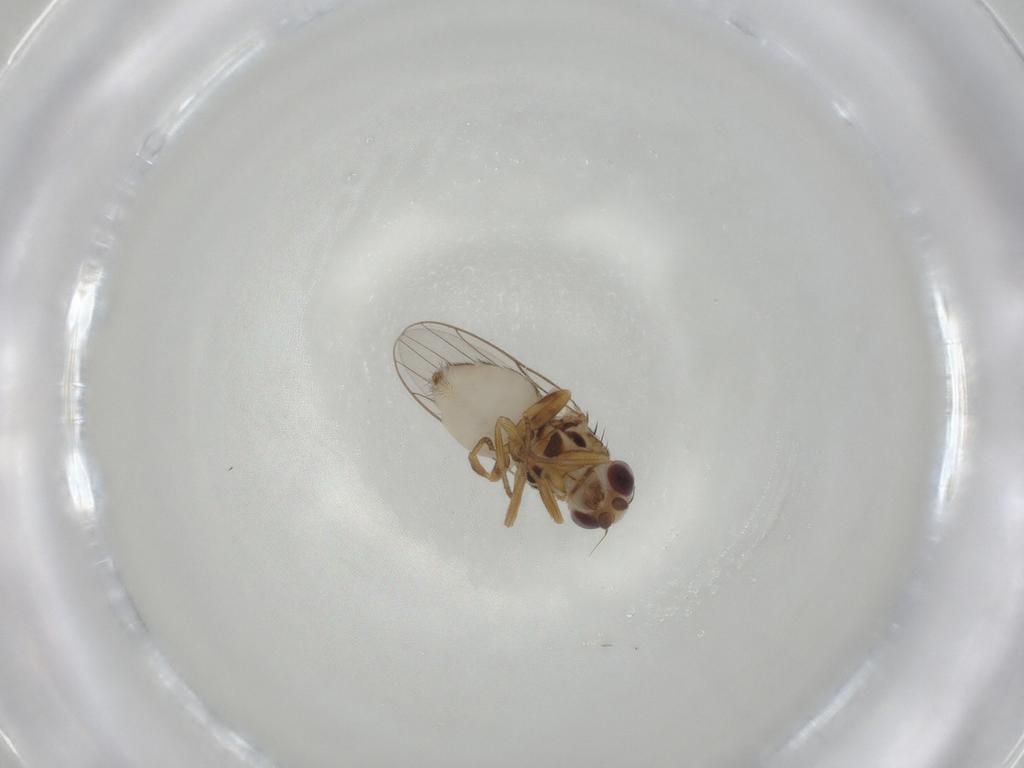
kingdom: Animalia
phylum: Arthropoda
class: Insecta
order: Diptera
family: Chloropidae
